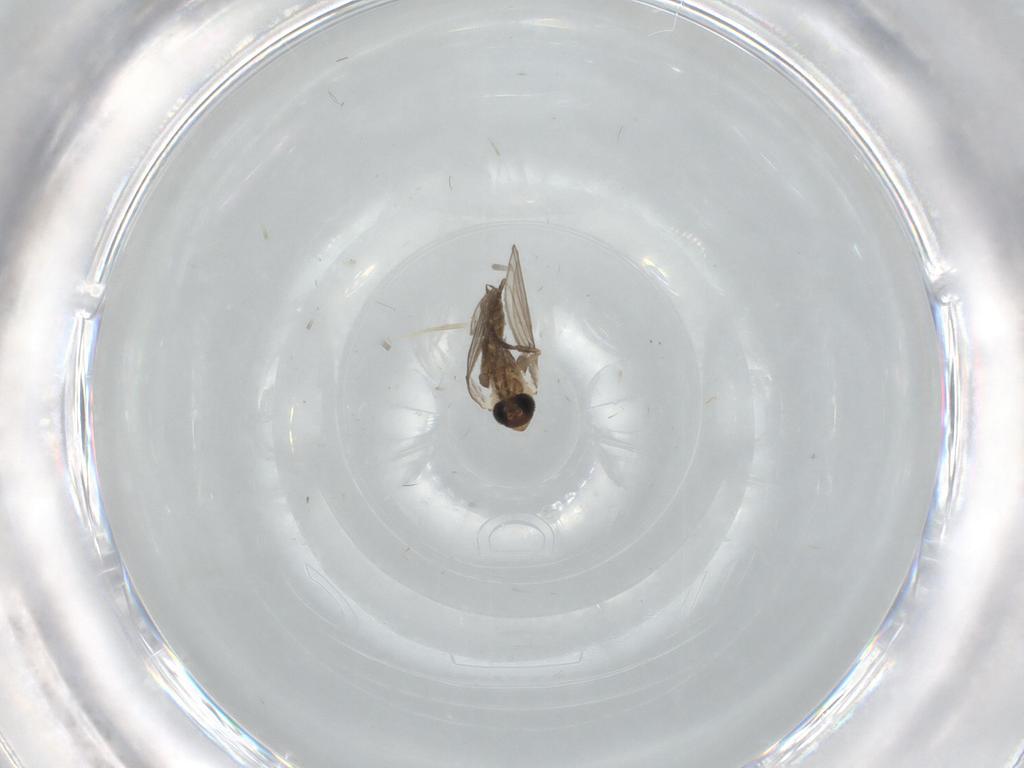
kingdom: Animalia
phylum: Arthropoda
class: Insecta
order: Diptera
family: Psychodidae
